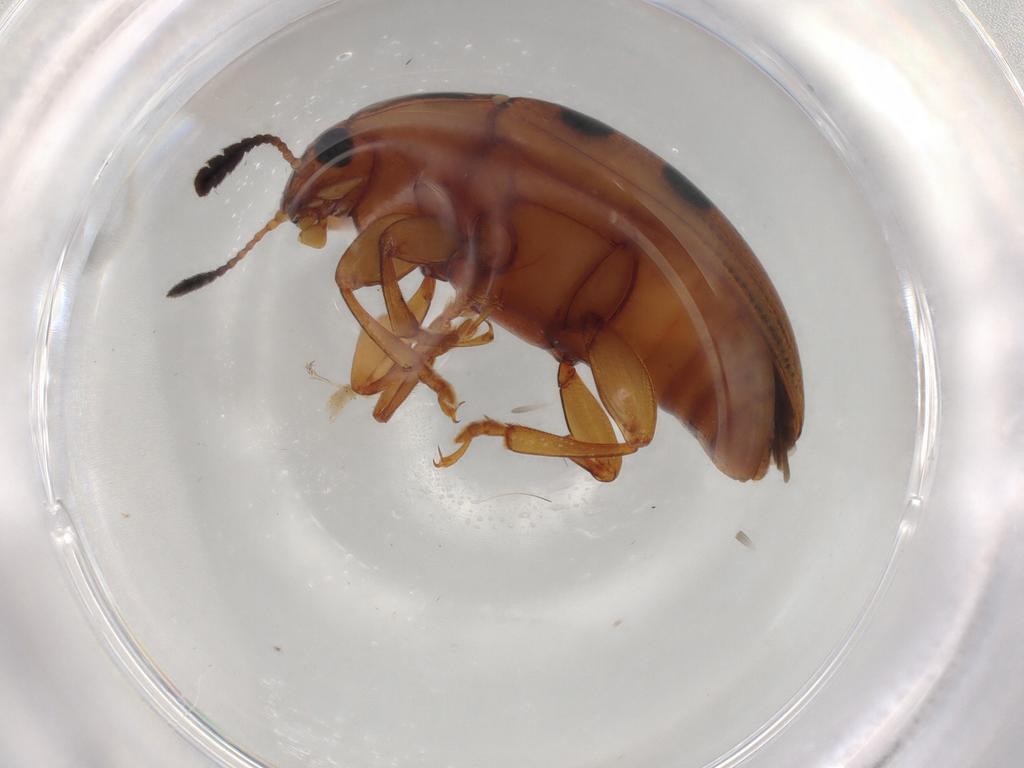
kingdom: Animalia
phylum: Arthropoda
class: Insecta
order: Coleoptera
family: Erotylidae
